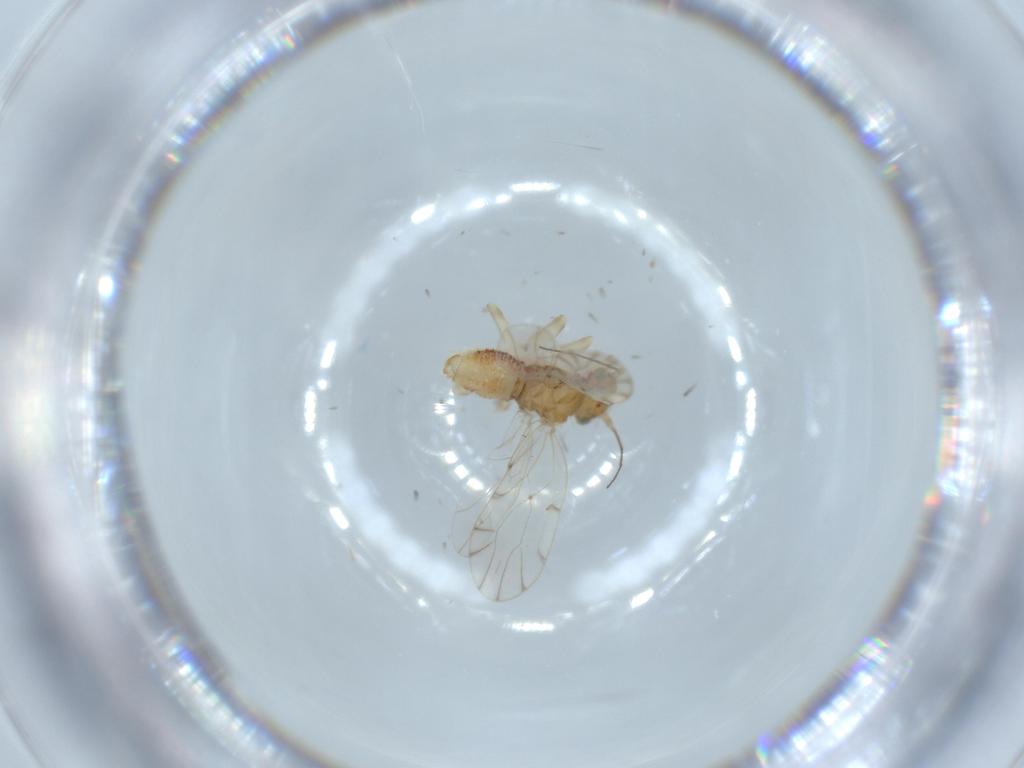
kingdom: Animalia
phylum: Arthropoda
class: Insecta
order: Psocodea
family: Ectopsocidae
